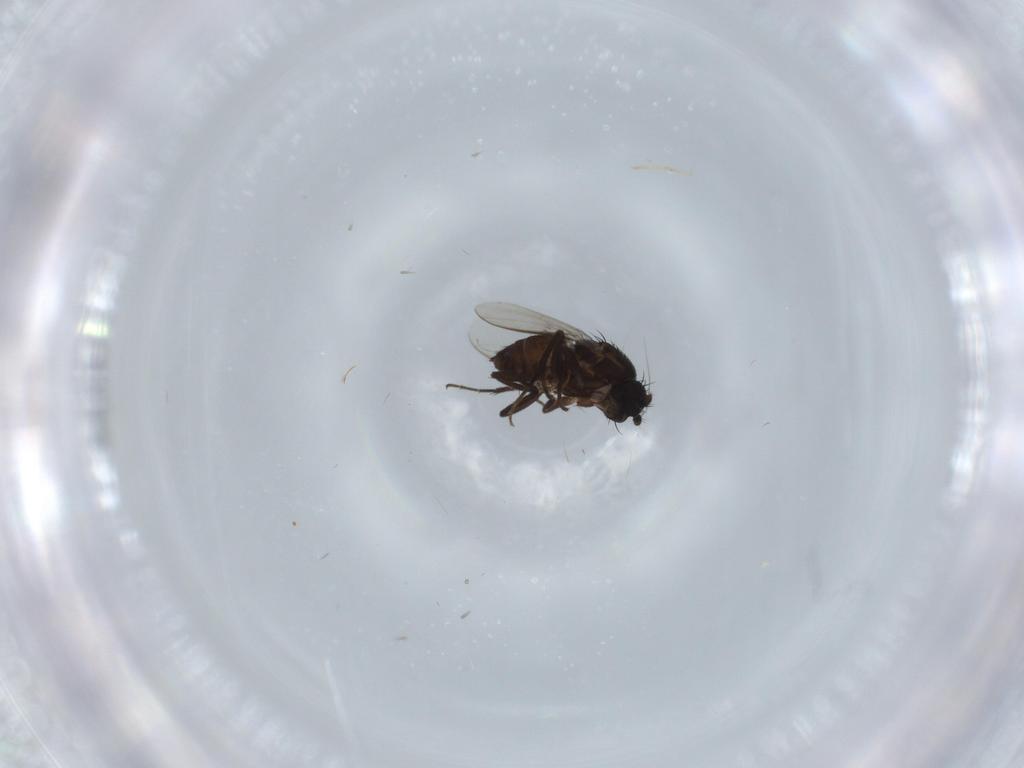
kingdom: Animalia
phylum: Arthropoda
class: Insecta
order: Diptera
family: Sphaeroceridae
